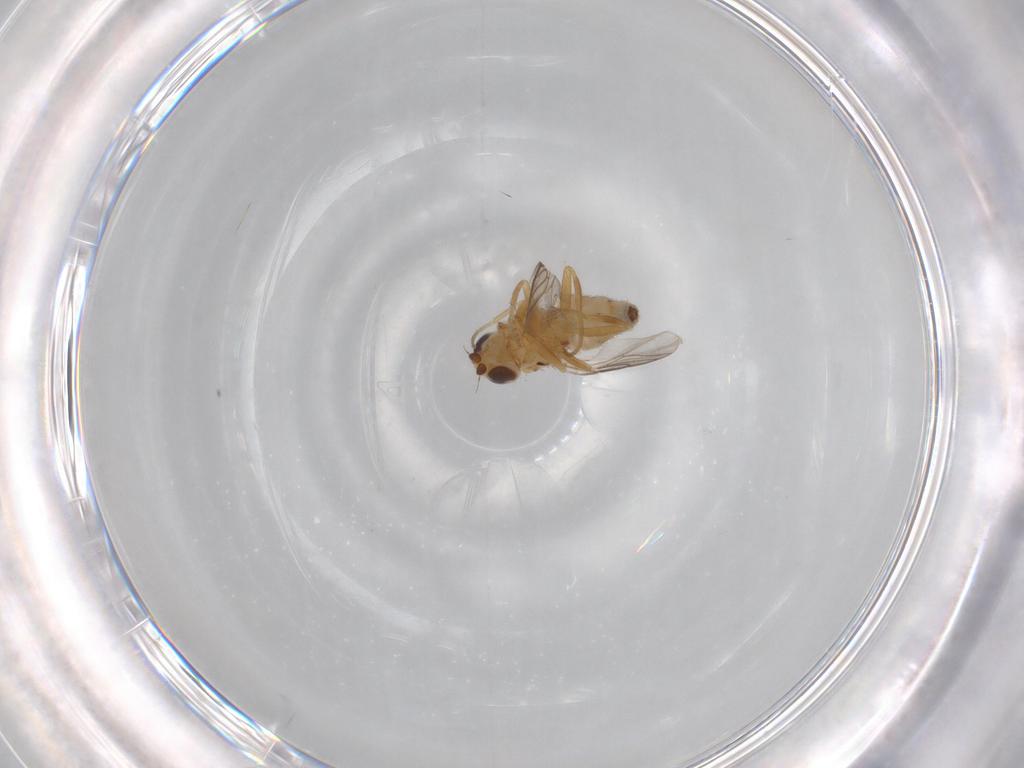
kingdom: Animalia
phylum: Arthropoda
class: Insecta
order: Diptera
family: Chloropidae
